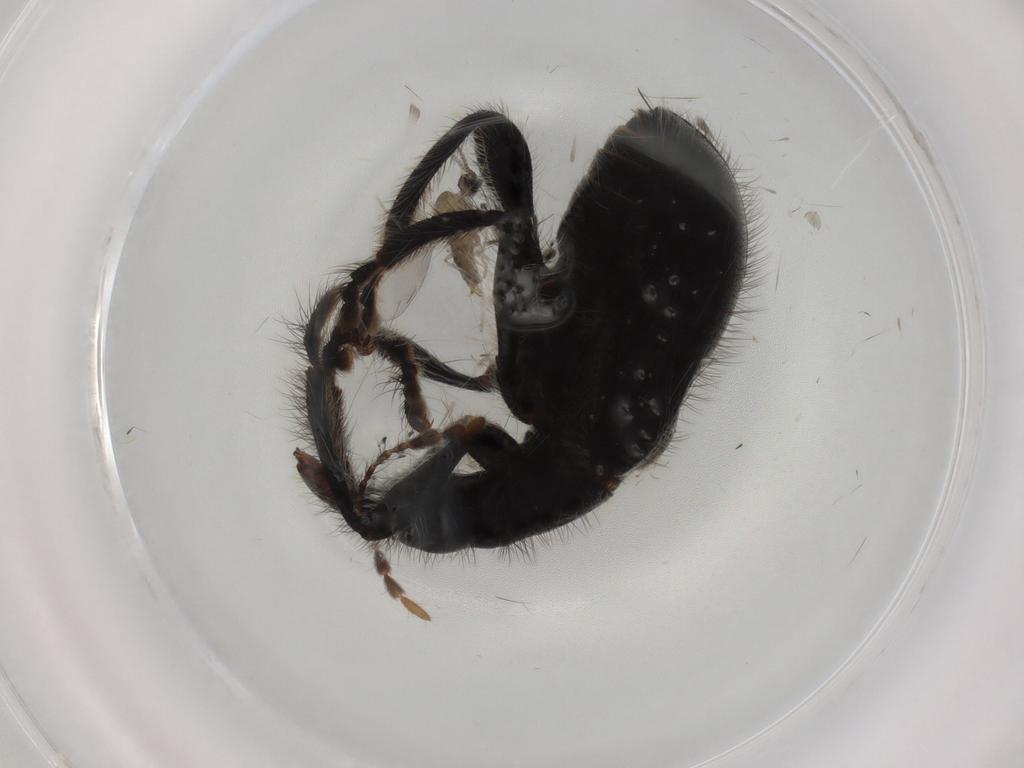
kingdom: Animalia
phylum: Arthropoda
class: Insecta
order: Coleoptera
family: Attelabidae
